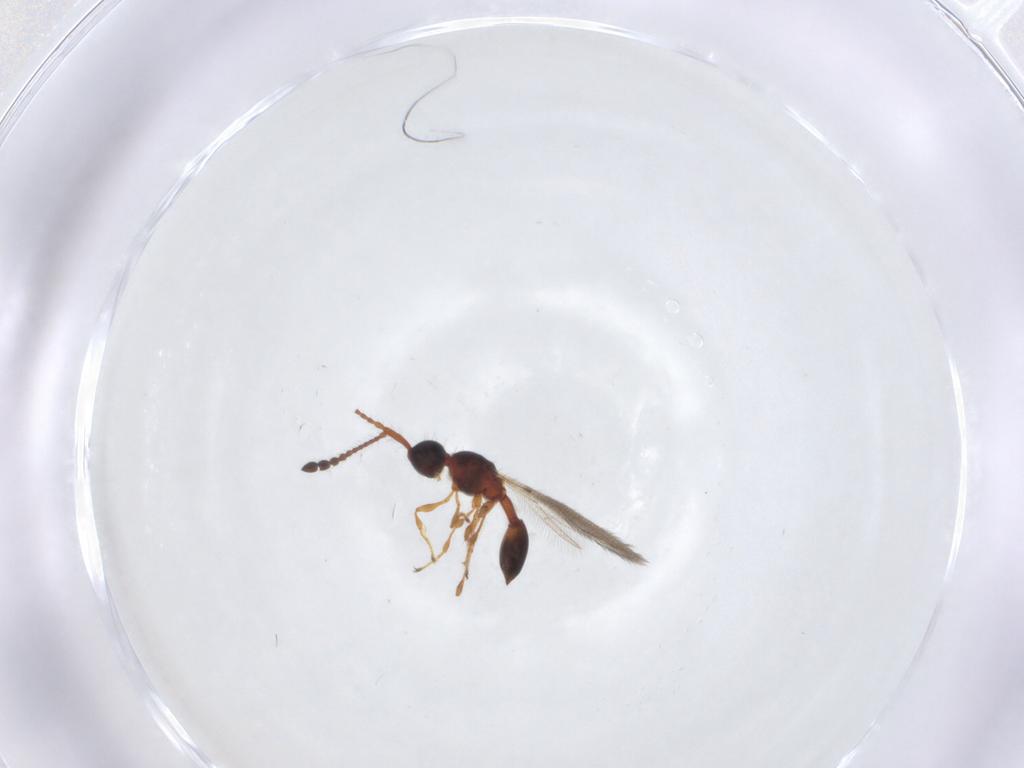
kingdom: Animalia
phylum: Arthropoda
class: Insecta
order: Hymenoptera
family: Diapriidae
